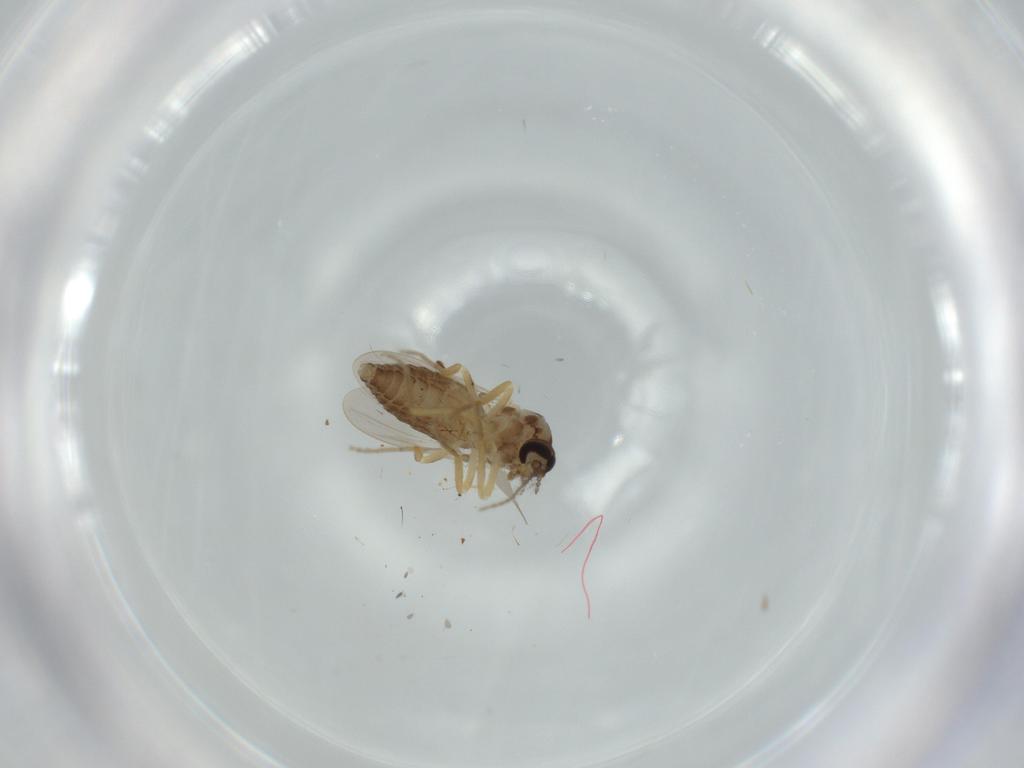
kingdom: Animalia
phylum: Arthropoda
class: Insecta
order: Diptera
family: Ceratopogonidae
